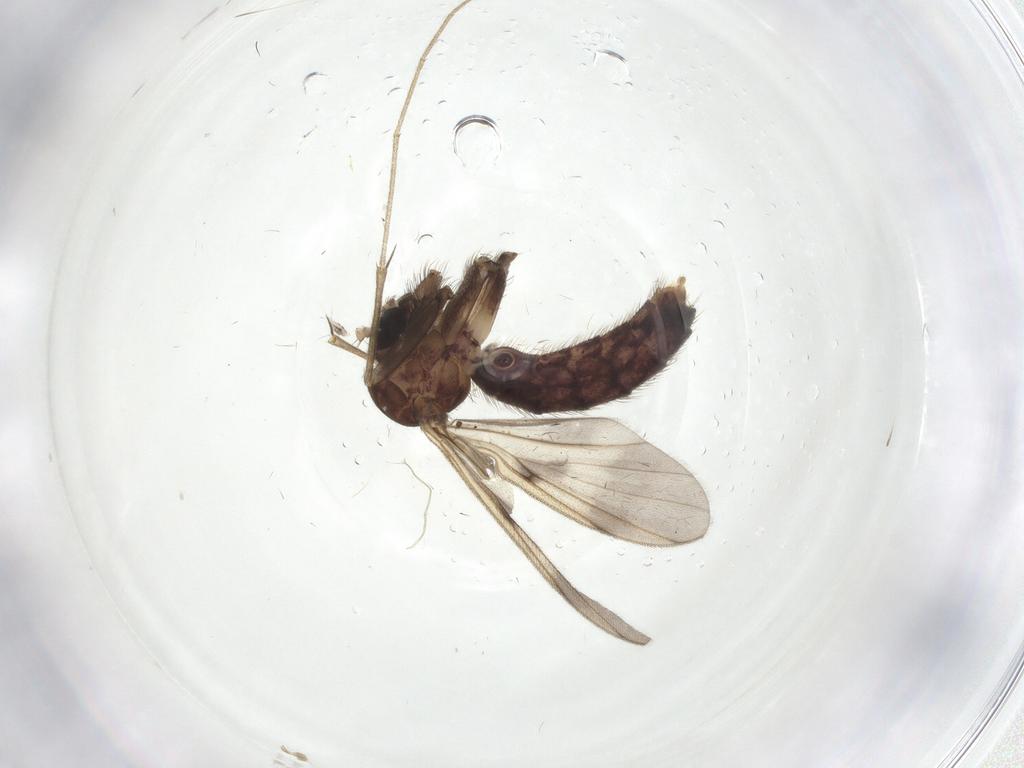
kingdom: Animalia
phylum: Arthropoda
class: Insecta
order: Diptera
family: Mycetophilidae
